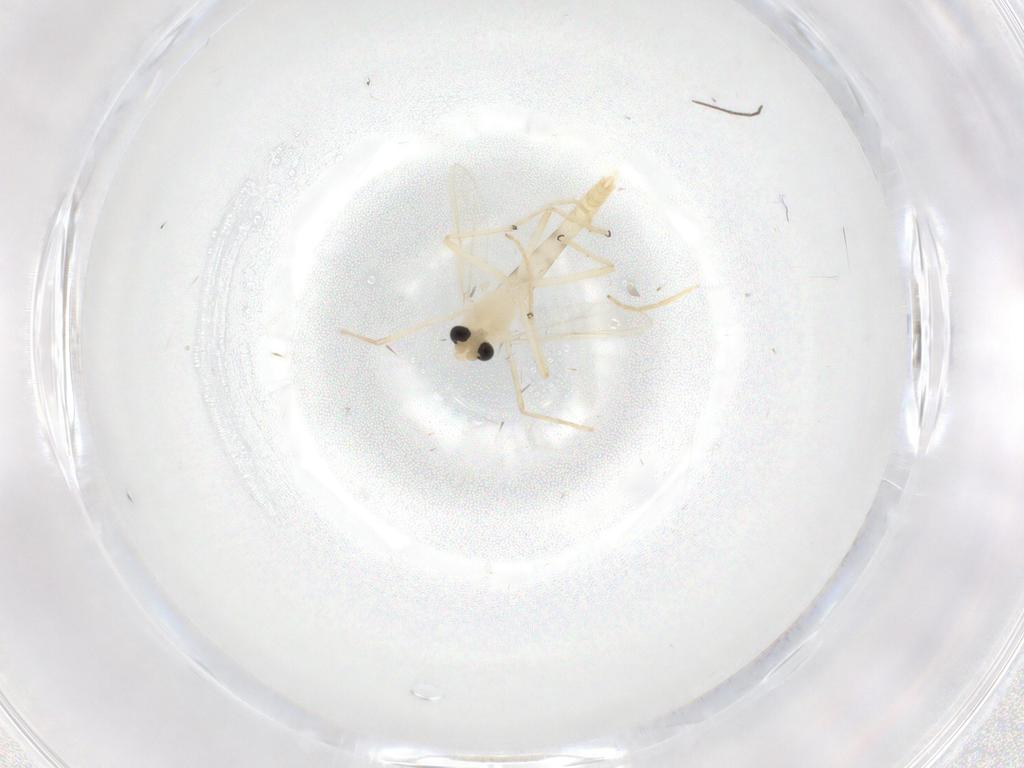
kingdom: Animalia
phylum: Arthropoda
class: Insecta
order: Diptera
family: Chironomidae
